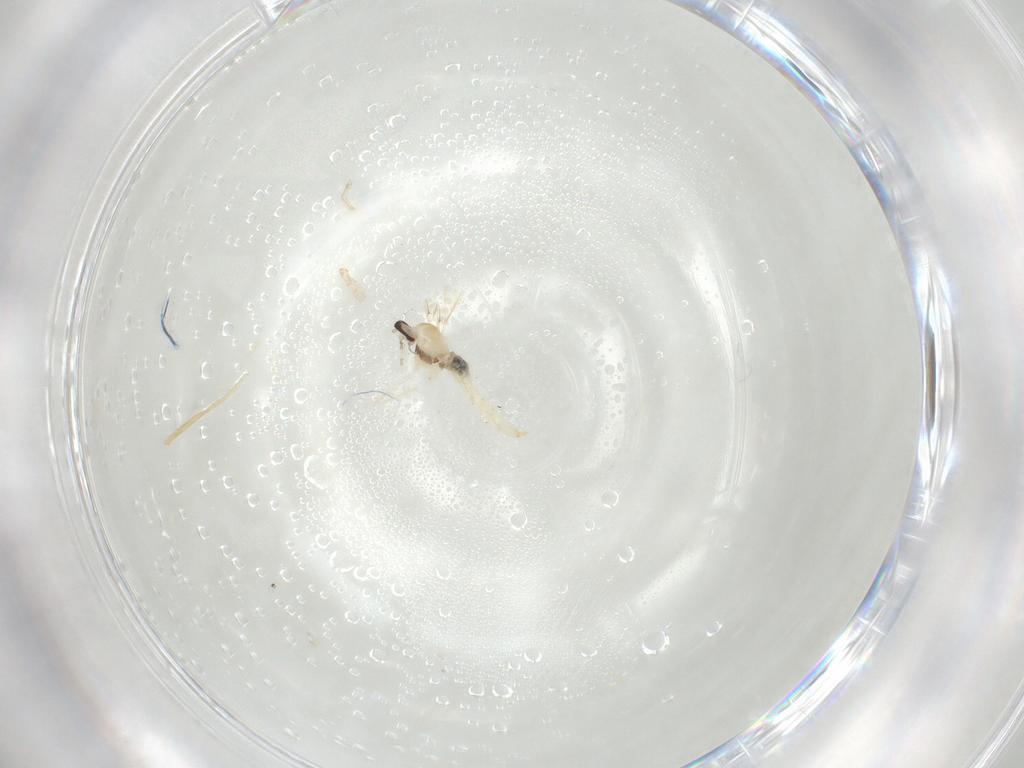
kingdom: Animalia
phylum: Arthropoda
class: Insecta
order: Diptera
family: Cecidomyiidae
